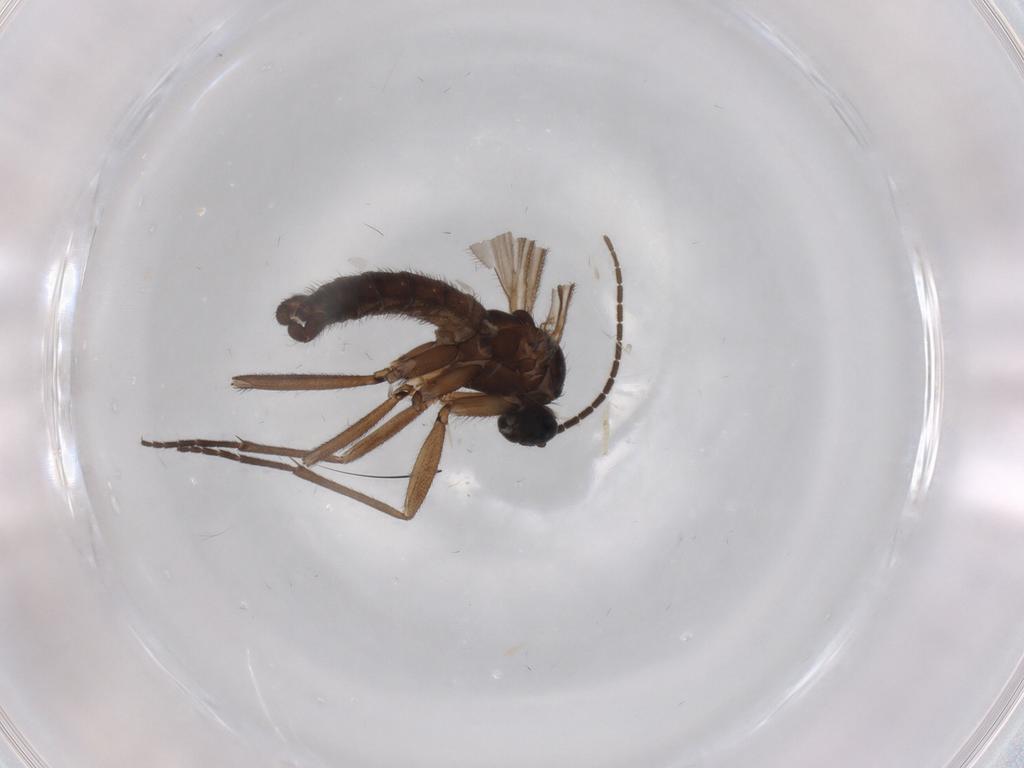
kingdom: Animalia
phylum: Arthropoda
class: Insecta
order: Diptera
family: Sciaridae
